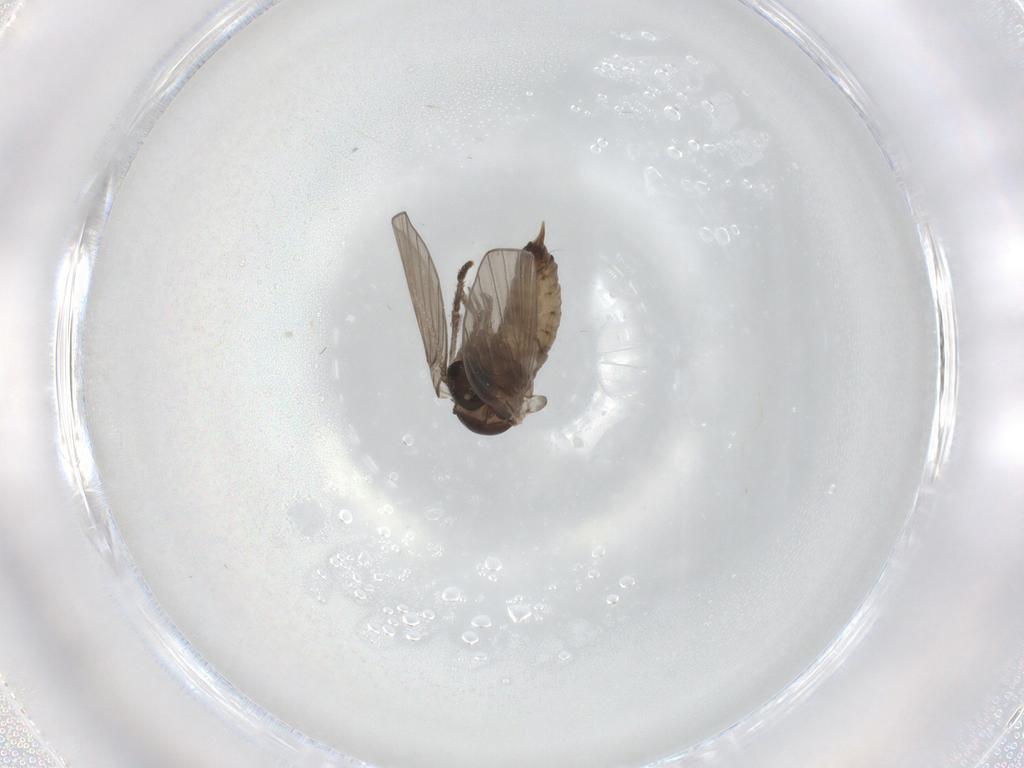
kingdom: Animalia
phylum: Arthropoda
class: Insecta
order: Diptera
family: Psychodidae
